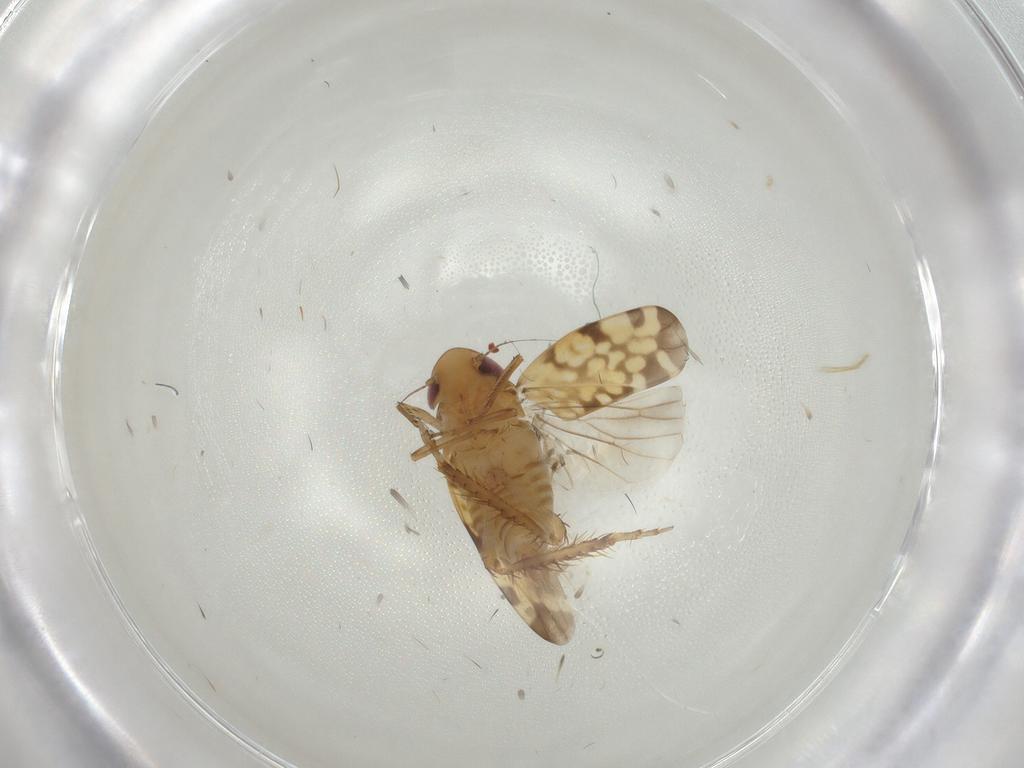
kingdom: Animalia
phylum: Arthropoda
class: Insecta
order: Hemiptera
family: Cicadellidae
